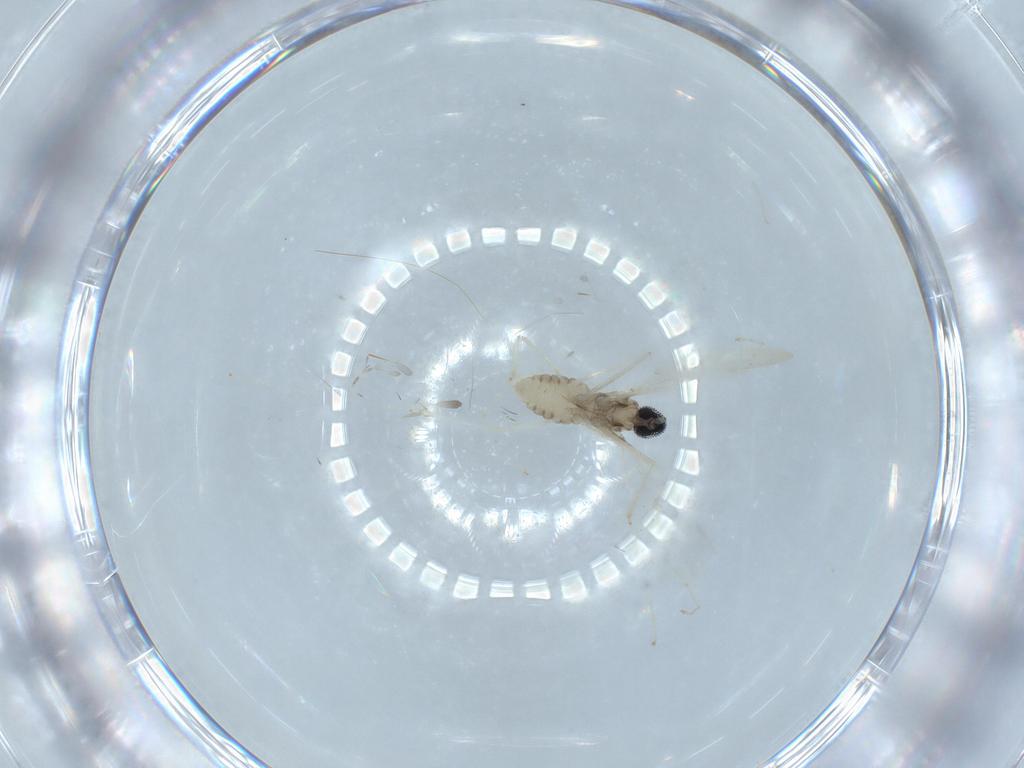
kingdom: Animalia
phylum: Arthropoda
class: Insecta
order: Diptera
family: Cecidomyiidae
